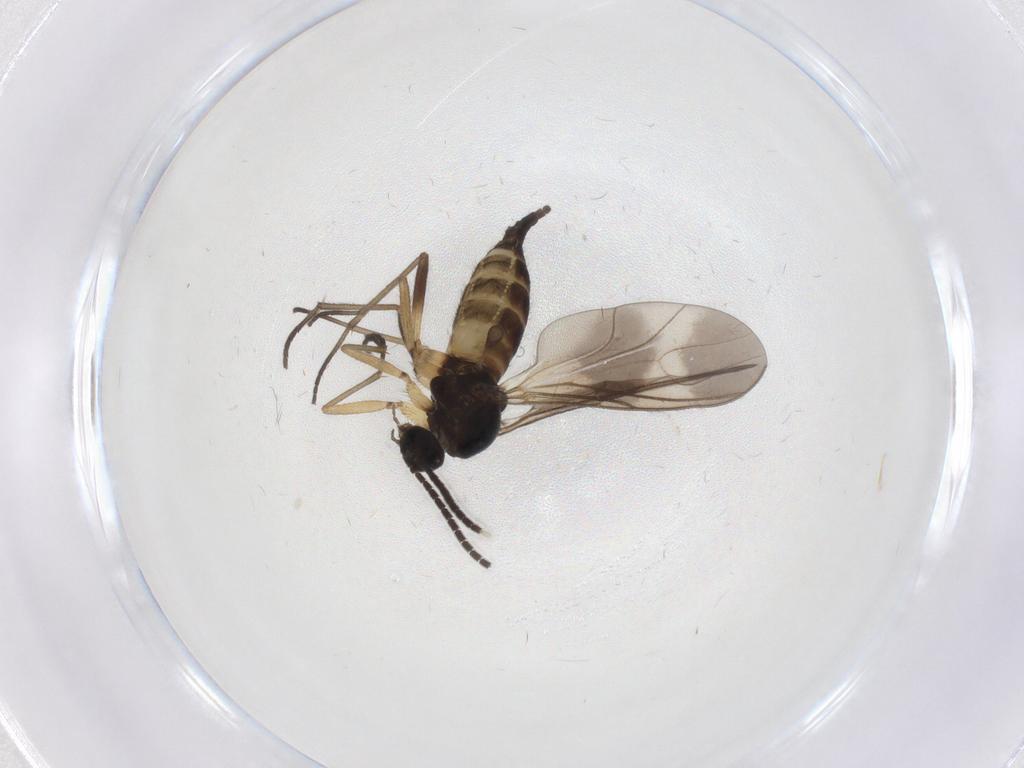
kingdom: Animalia
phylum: Arthropoda
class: Insecta
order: Diptera
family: Sciaridae
